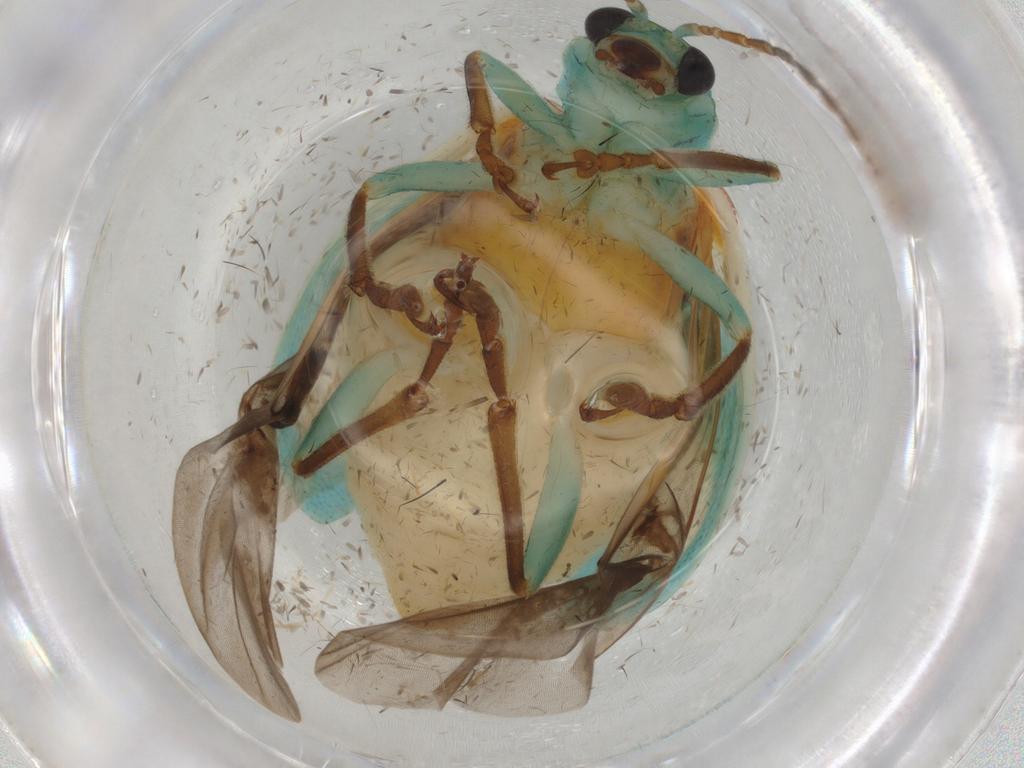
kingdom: Animalia
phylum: Arthropoda
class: Insecta
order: Coleoptera
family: Chrysomelidae
